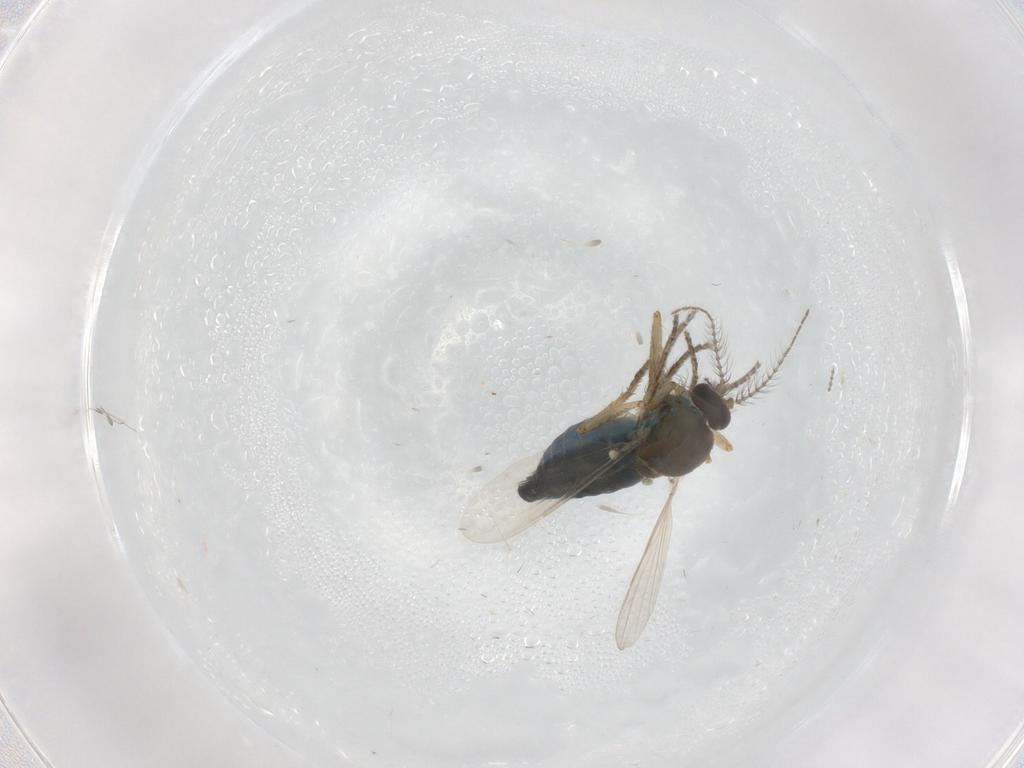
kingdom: Animalia
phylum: Arthropoda
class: Insecta
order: Diptera
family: Ceratopogonidae
